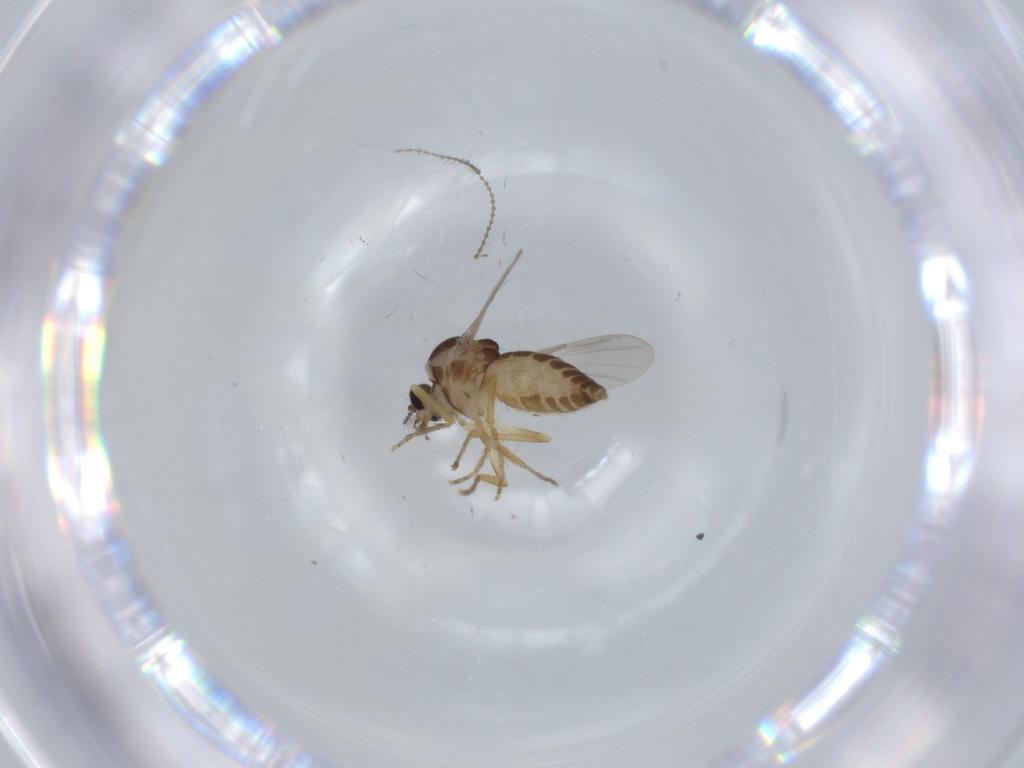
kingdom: Animalia
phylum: Arthropoda
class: Insecta
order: Diptera
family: Ceratopogonidae
